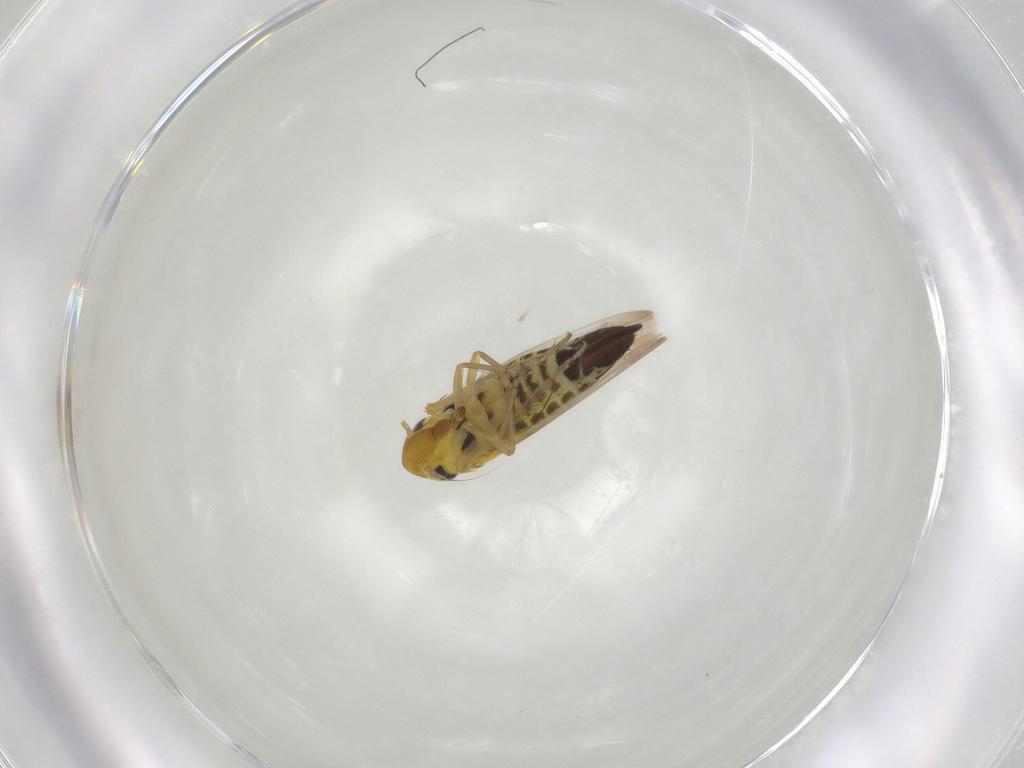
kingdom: Animalia
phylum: Arthropoda
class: Insecta
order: Hemiptera
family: Cicadellidae
